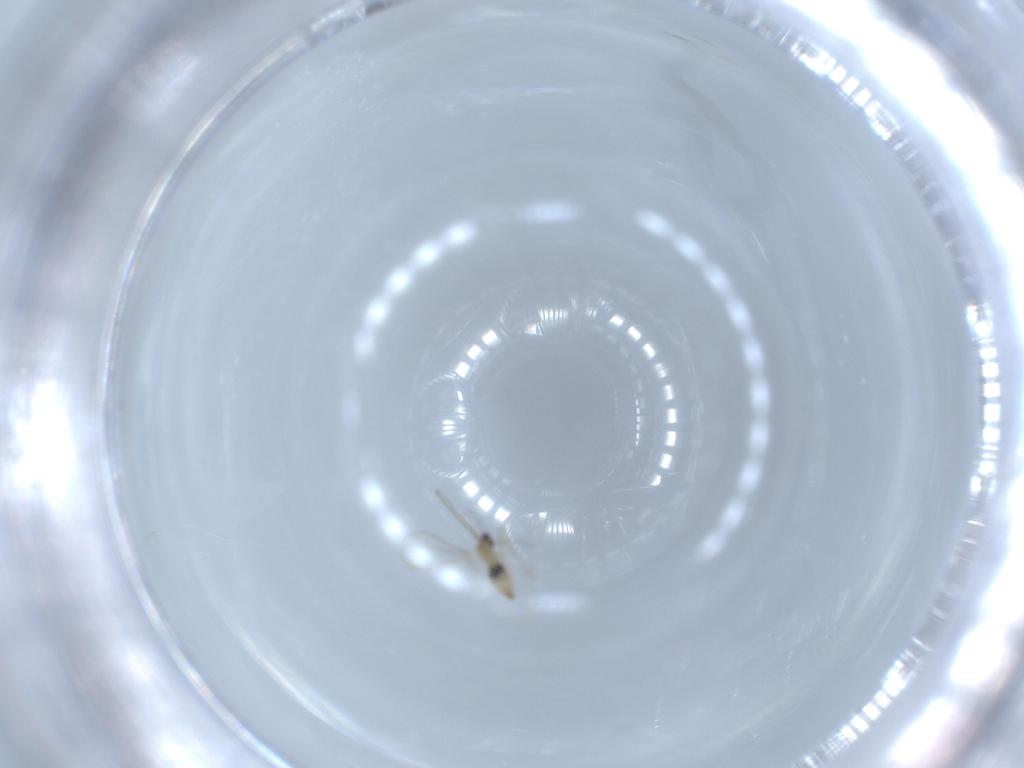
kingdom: Animalia
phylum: Arthropoda
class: Insecta
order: Diptera
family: Cecidomyiidae
